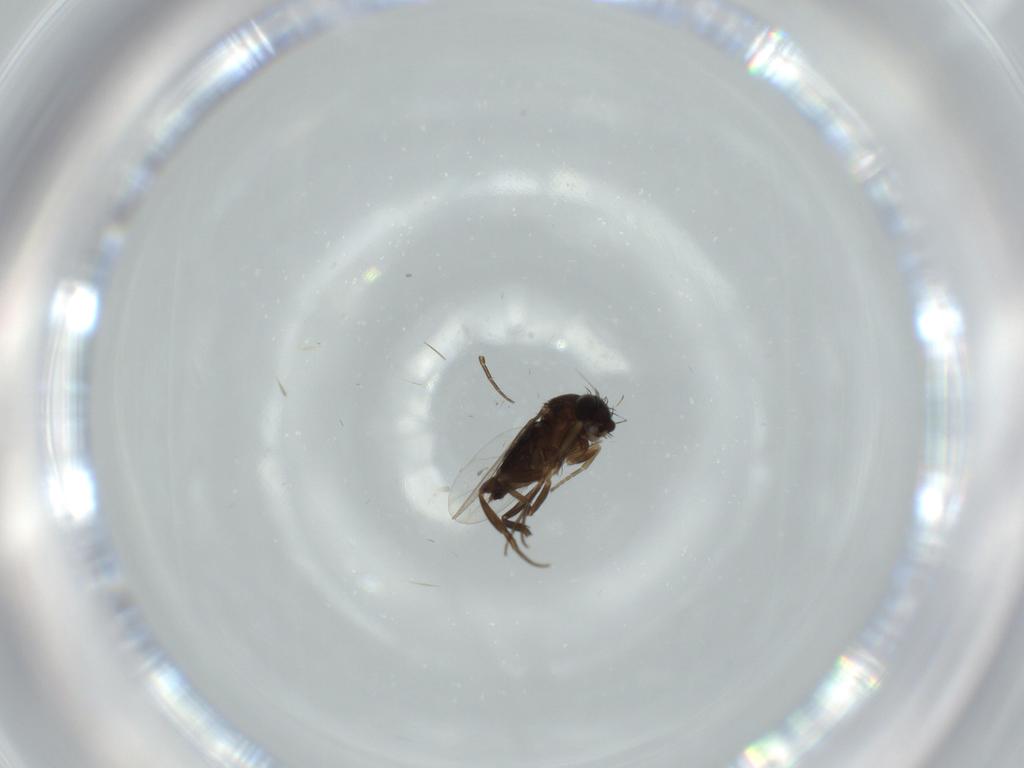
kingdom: Animalia
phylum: Arthropoda
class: Insecta
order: Diptera
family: Phoridae
